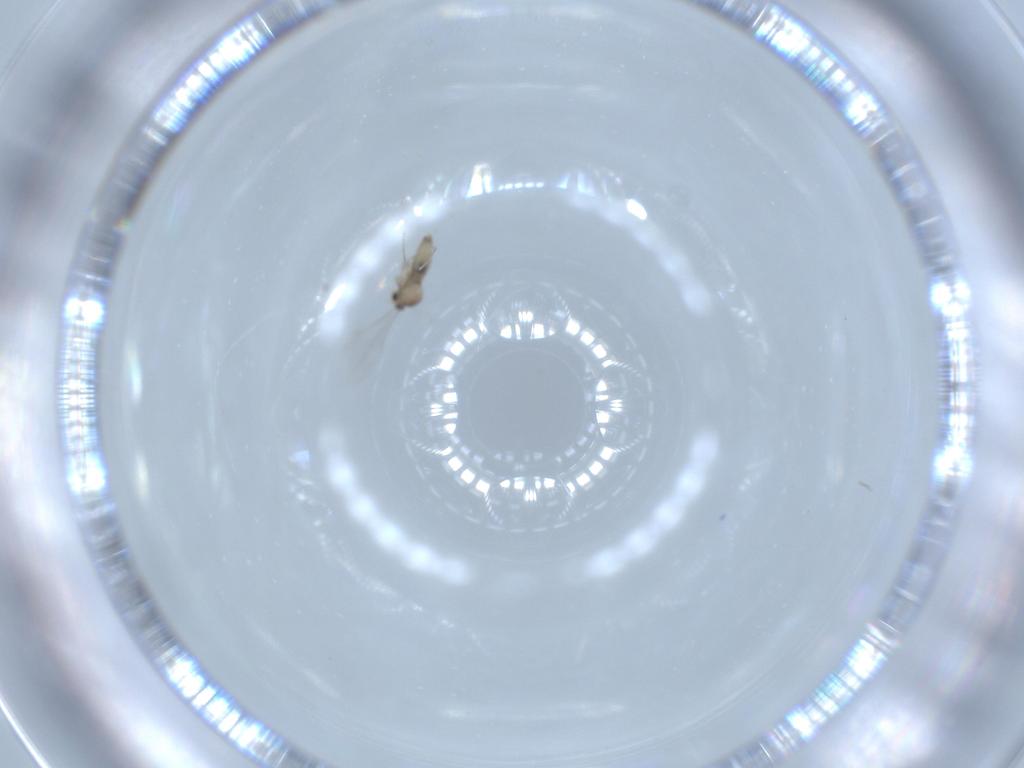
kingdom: Animalia
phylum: Arthropoda
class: Insecta
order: Diptera
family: Cecidomyiidae
